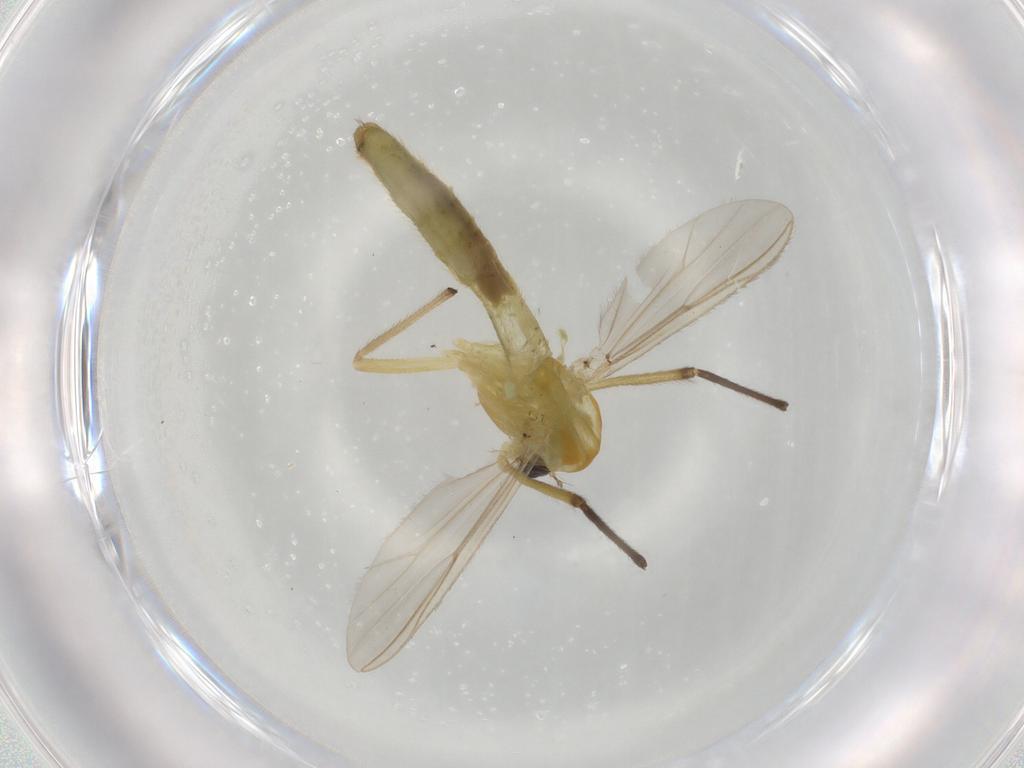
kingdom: Animalia
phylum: Arthropoda
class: Insecta
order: Diptera
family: Chironomidae
